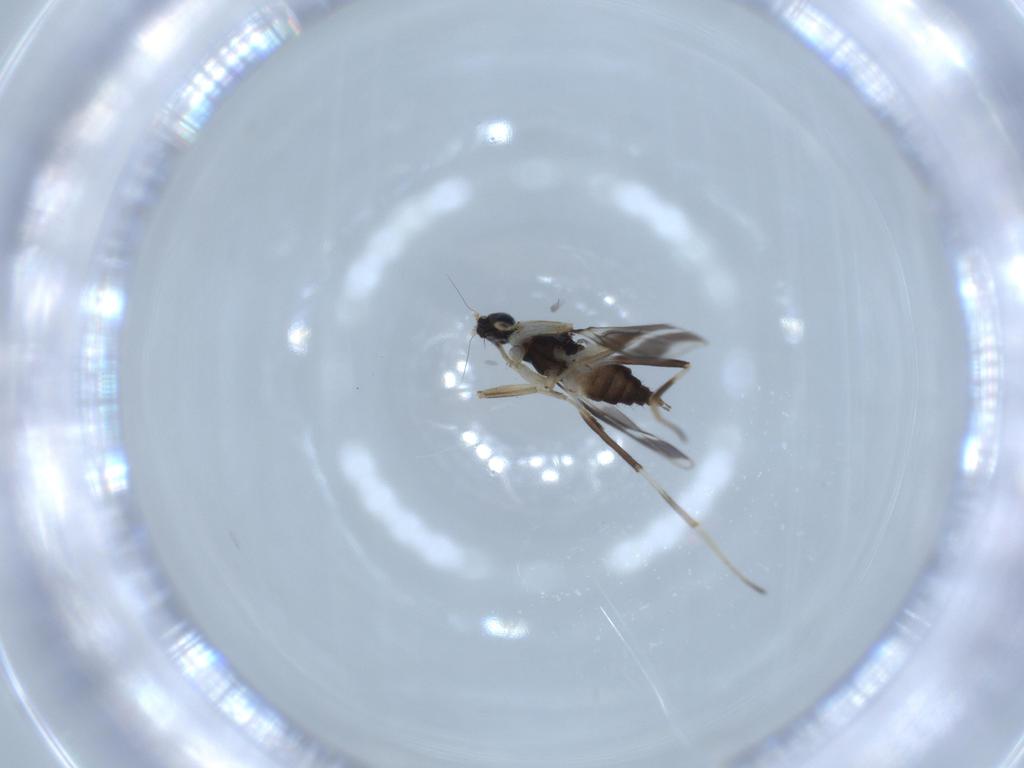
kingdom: Animalia
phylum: Arthropoda
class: Insecta
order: Diptera
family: Hybotidae
